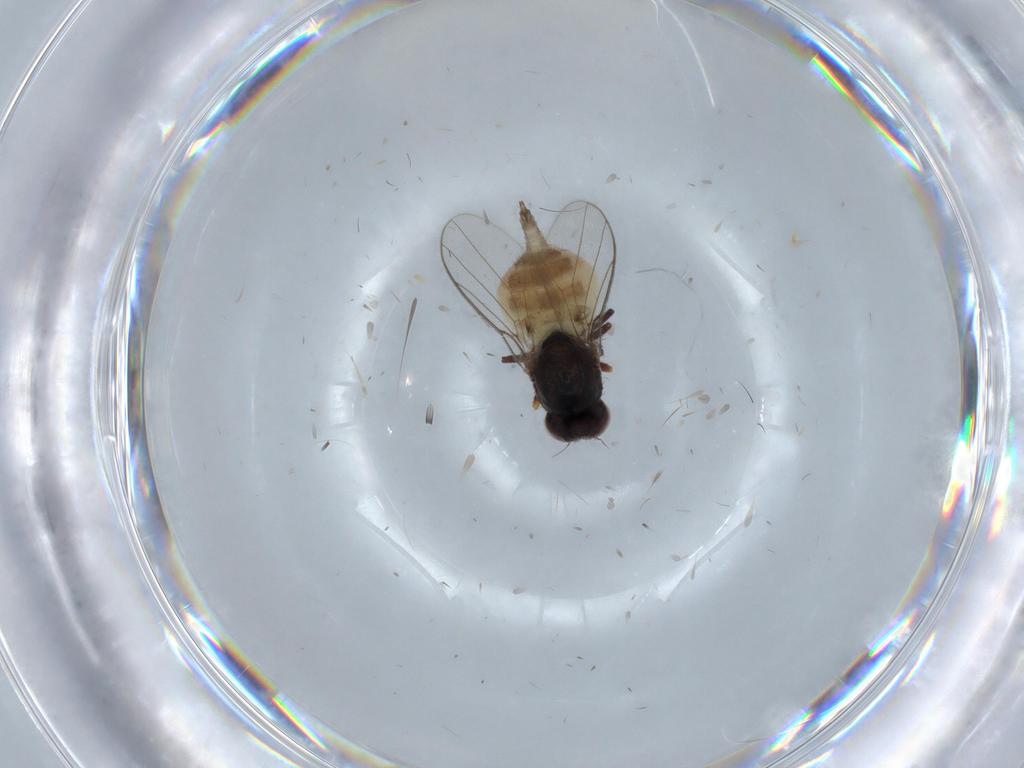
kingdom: Animalia
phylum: Arthropoda
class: Insecta
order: Diptera
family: Chloropidae
